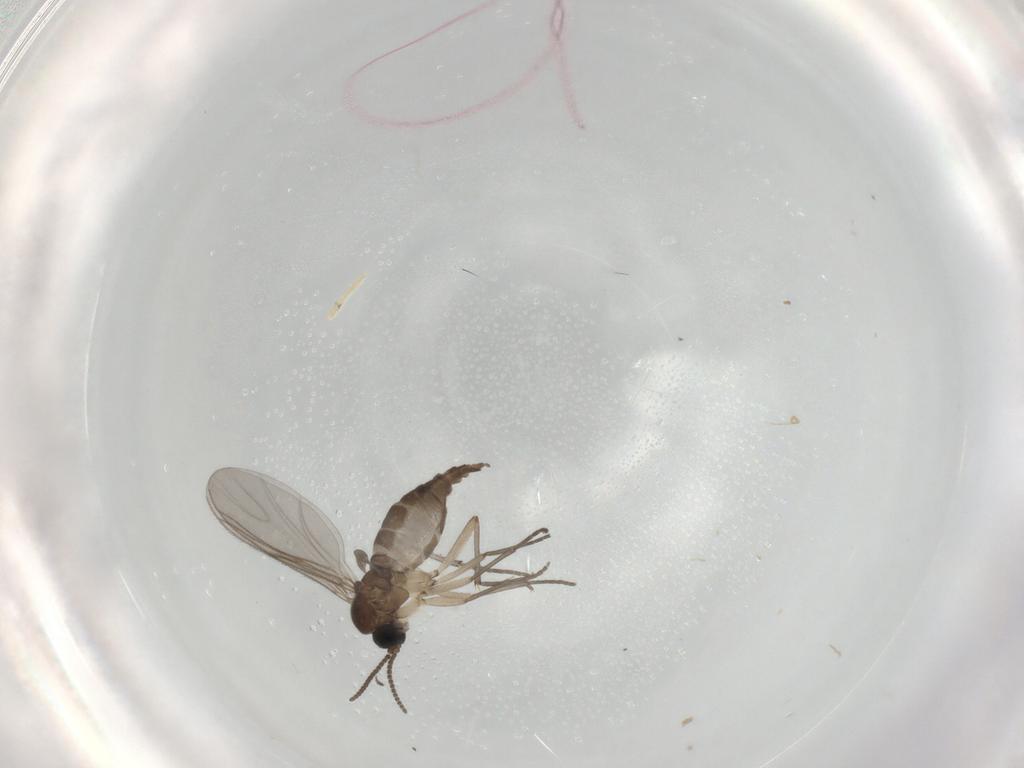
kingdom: Animalia
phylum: Arthropoda
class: Insecta
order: Diptera
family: Sciaridae
